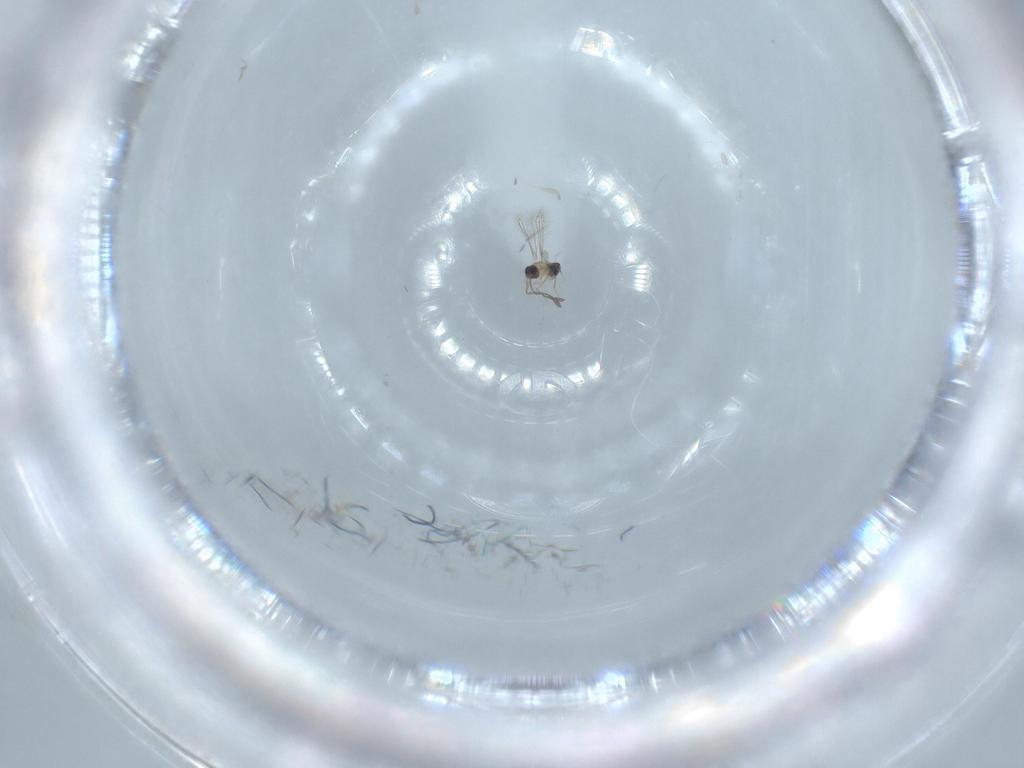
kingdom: Animalia
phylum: Arthropoda
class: Insecta
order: Hymenoptera
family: Mymaridae
